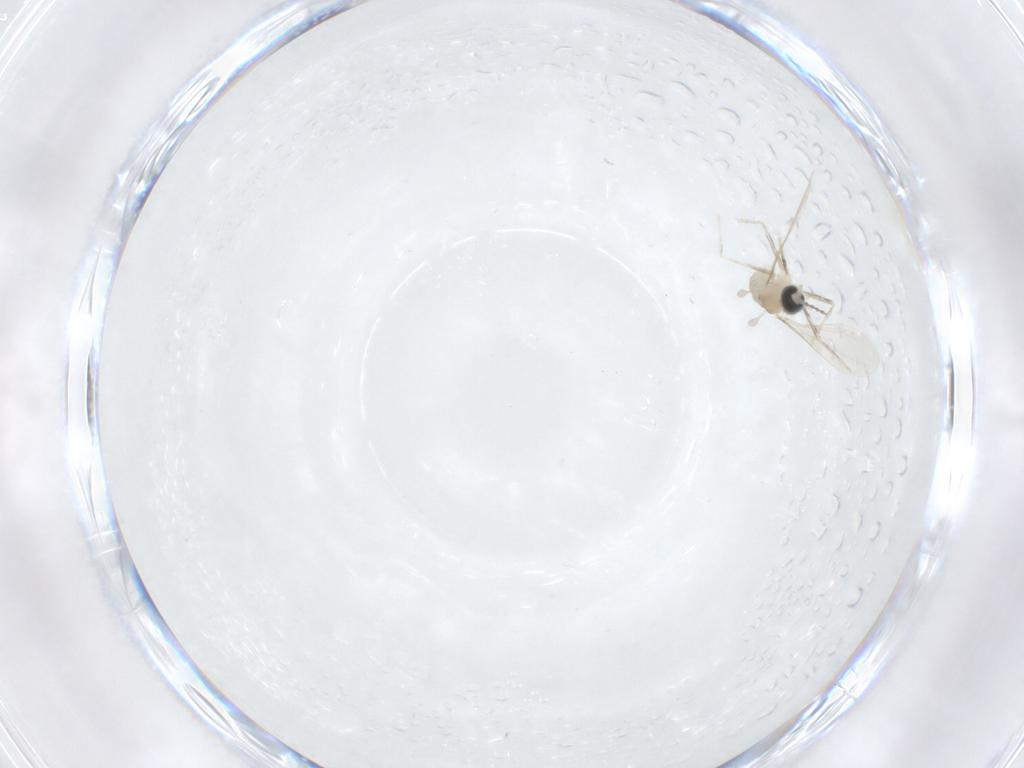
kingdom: Animalia
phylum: Arthropoda
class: Insecta
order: Diptera
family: Cecidomyiidae
